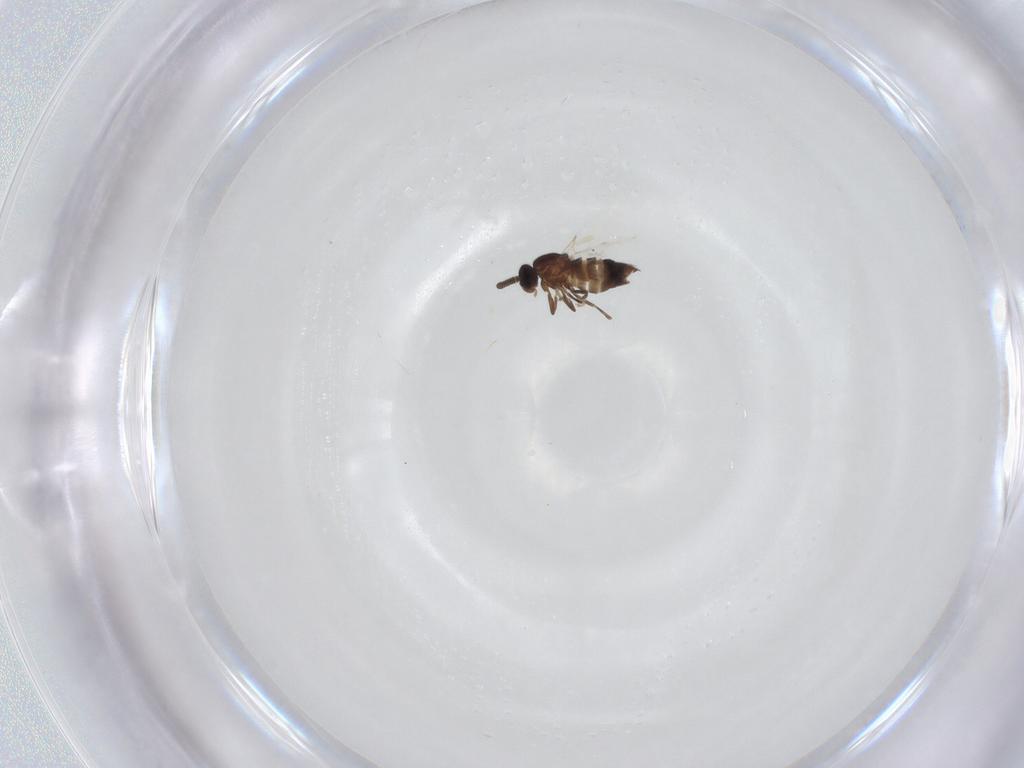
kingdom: Animalia
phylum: Arthropoda
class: Insecta
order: Diptera
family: Scatopsidae
